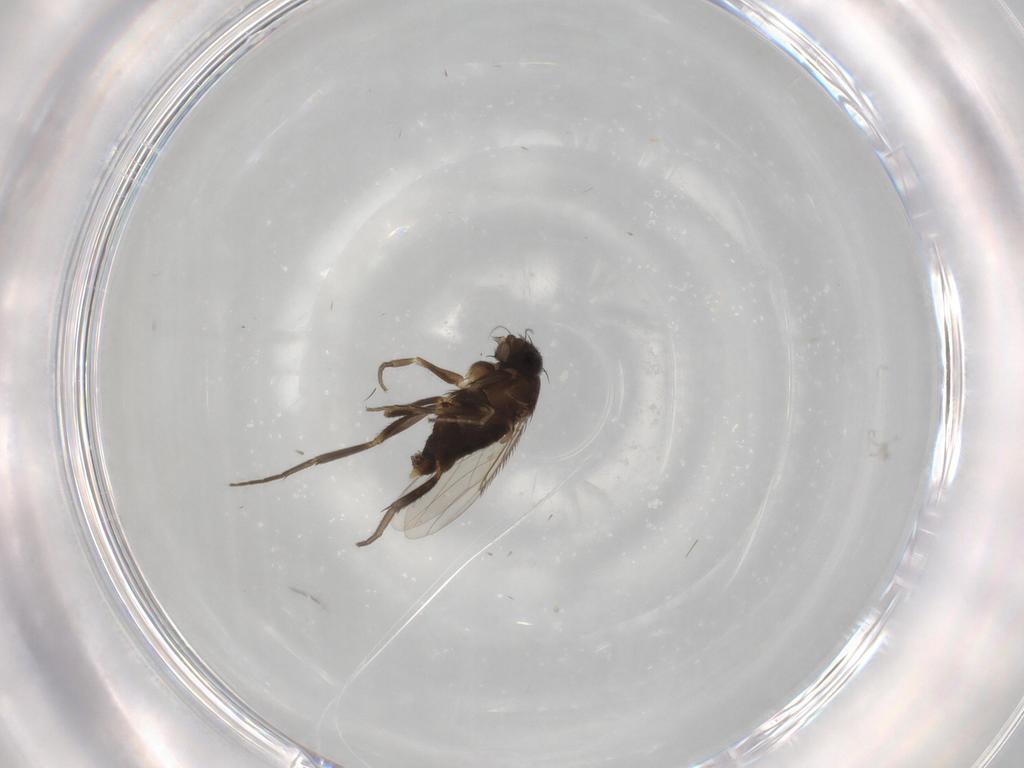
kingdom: Animalia
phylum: Arthropoda
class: Insecta
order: Diptera
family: Phoridae
